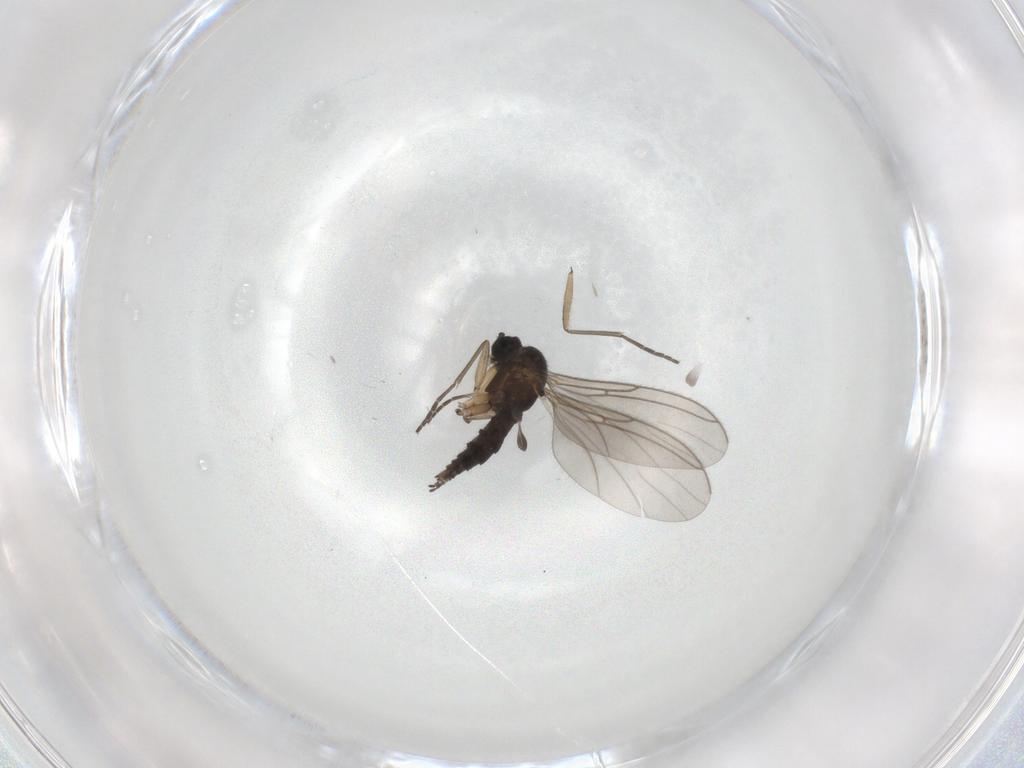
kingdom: Animalia
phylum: Arthropoda
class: Insecta
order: Diptera
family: Sciaridae
